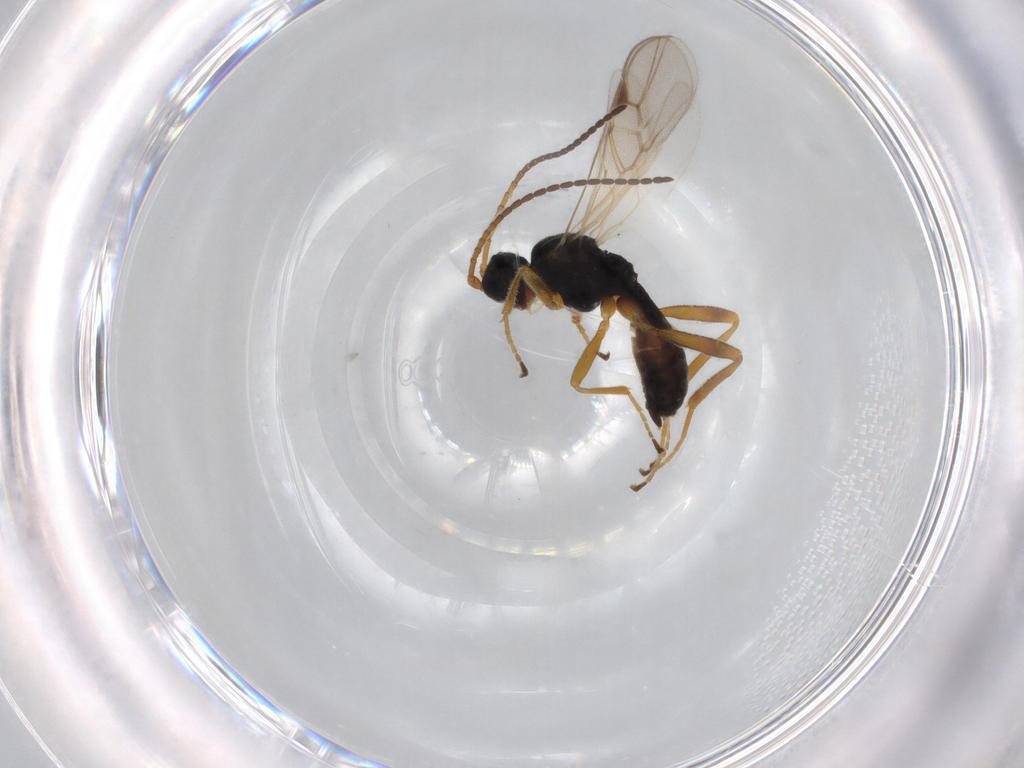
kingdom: Animalia
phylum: Arthropoda
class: Insecta
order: Hymenoptera
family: Braconidae
